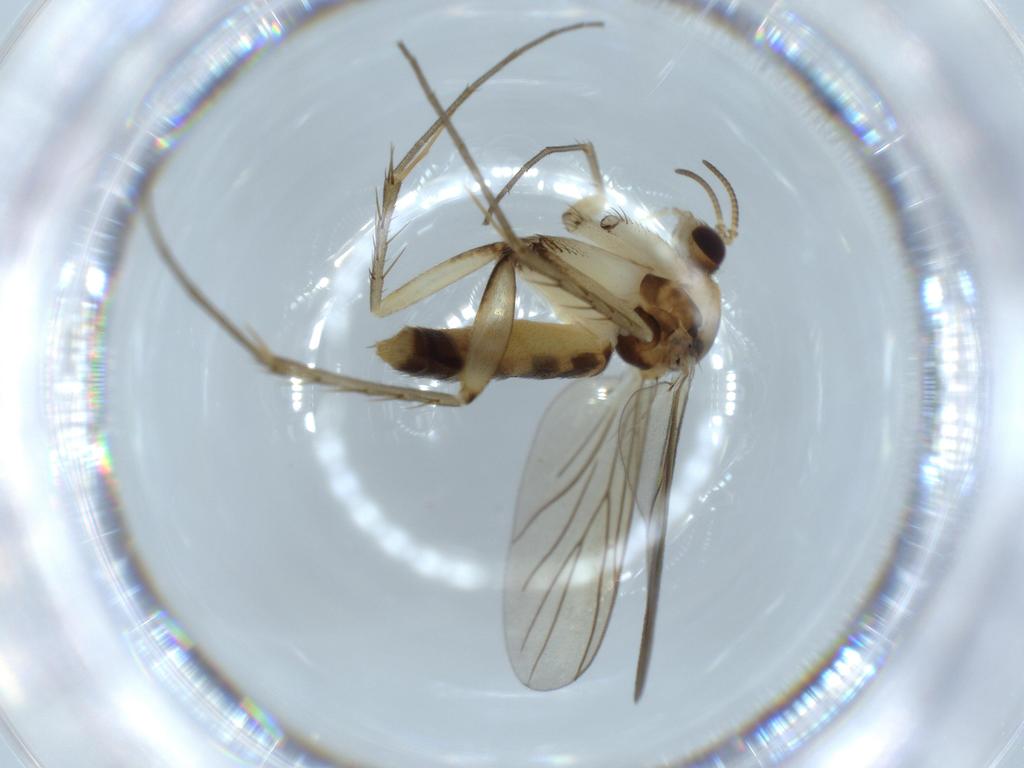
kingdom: Animalia
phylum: Arthropoda
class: Insecta
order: Diptera
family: Mycetophilidae
